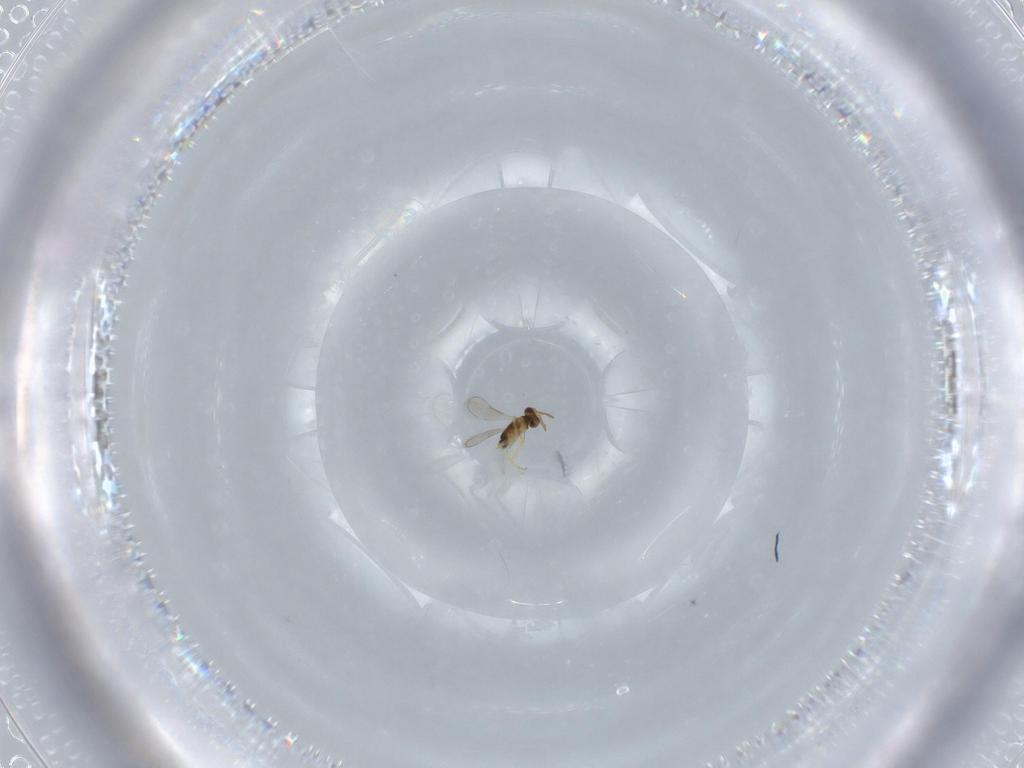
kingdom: Animalia
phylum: Arthropoda
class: Insecta
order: Hymenoptera
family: Aphelinidae
